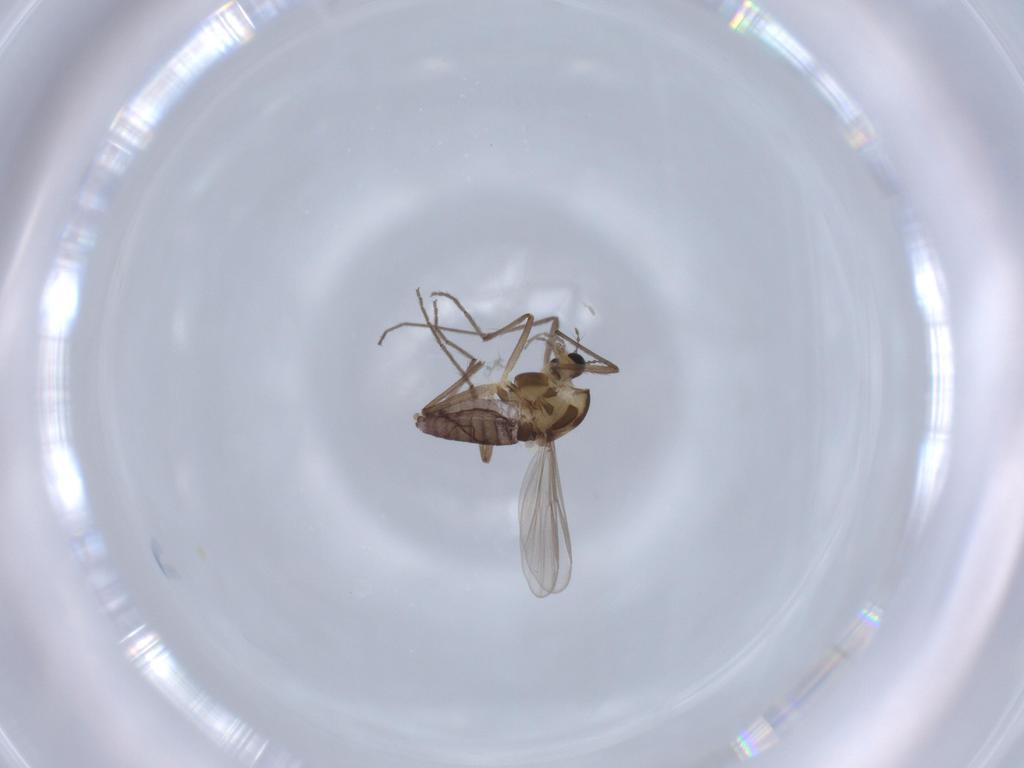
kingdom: Animalia
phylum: Arthropoda
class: Insecta
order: Diptera
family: Chironomidae
